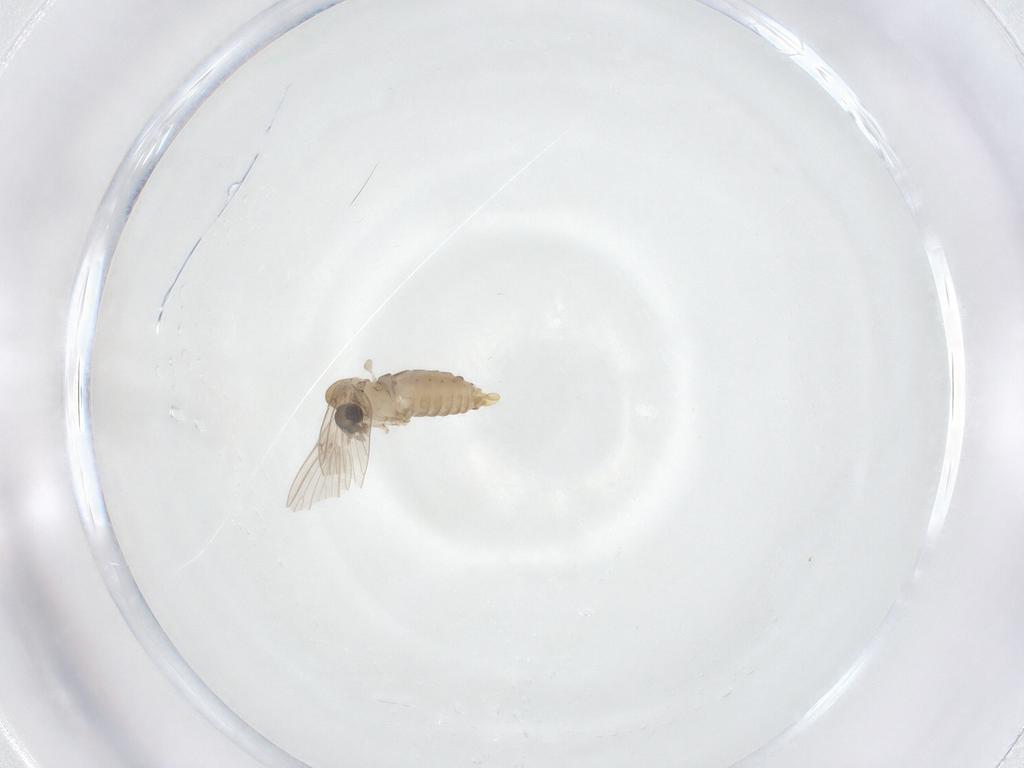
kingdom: Animalia
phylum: Arthropoda
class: Insecta
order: Diptera
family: Psychodidae
